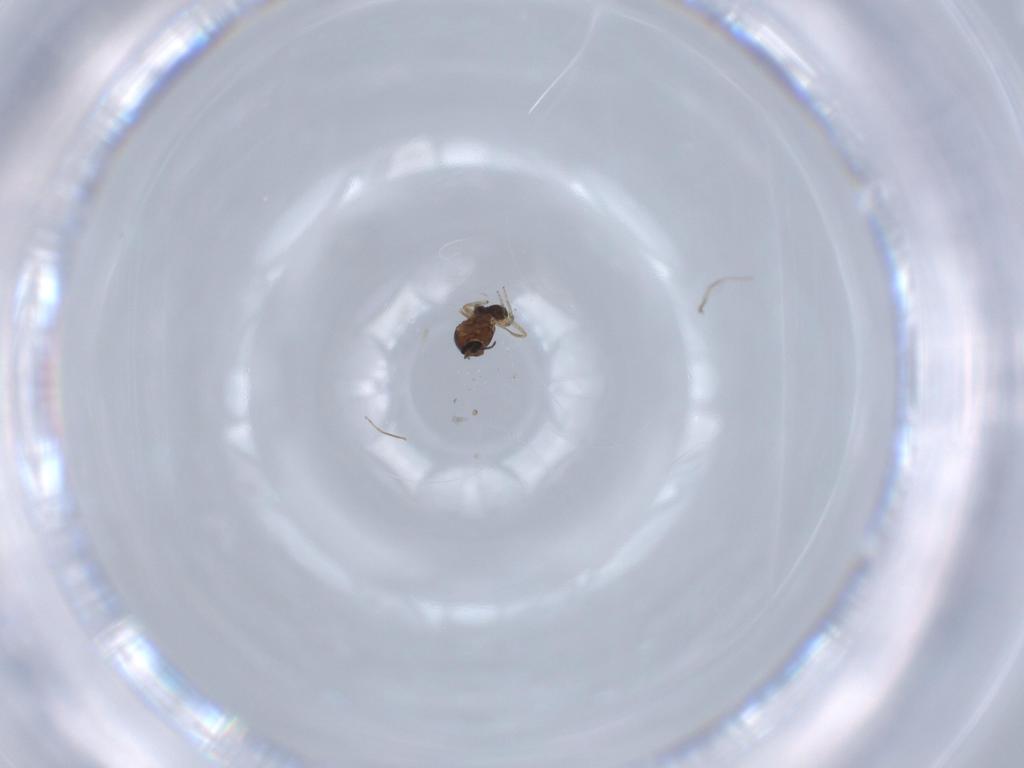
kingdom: Animalia
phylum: Arthropoda
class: Insecta
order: Diptera
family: Ceratopogonidae
